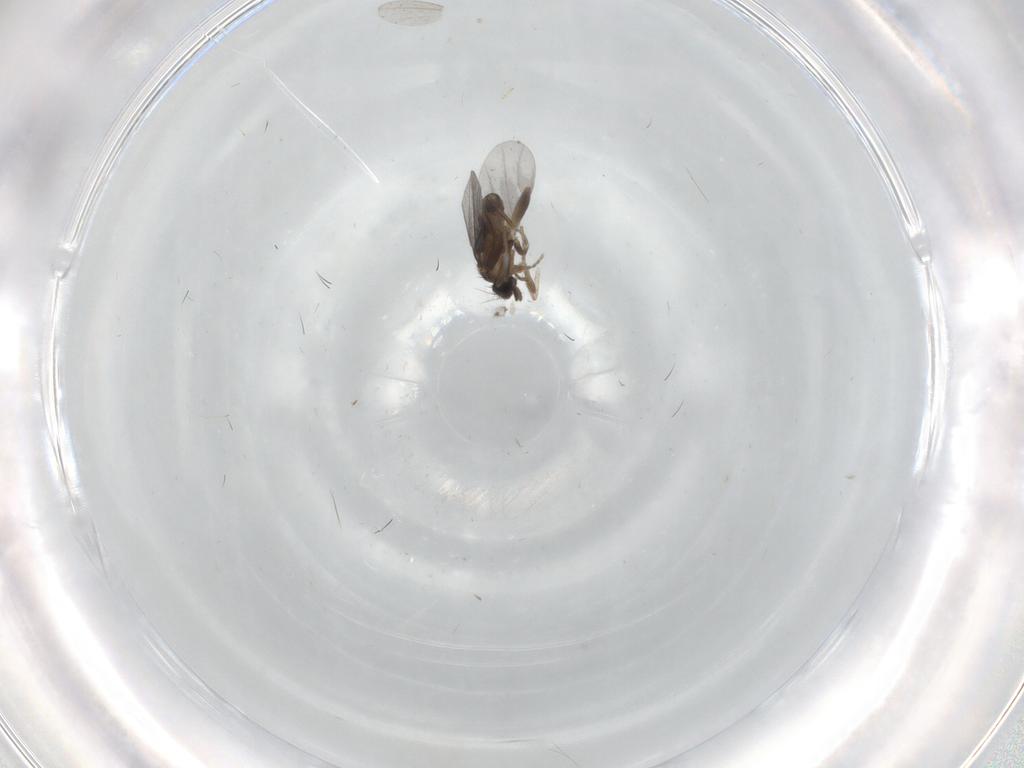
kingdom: Animalia
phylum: Arthropoda
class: Insecta
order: Diptera
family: Psychodidae
